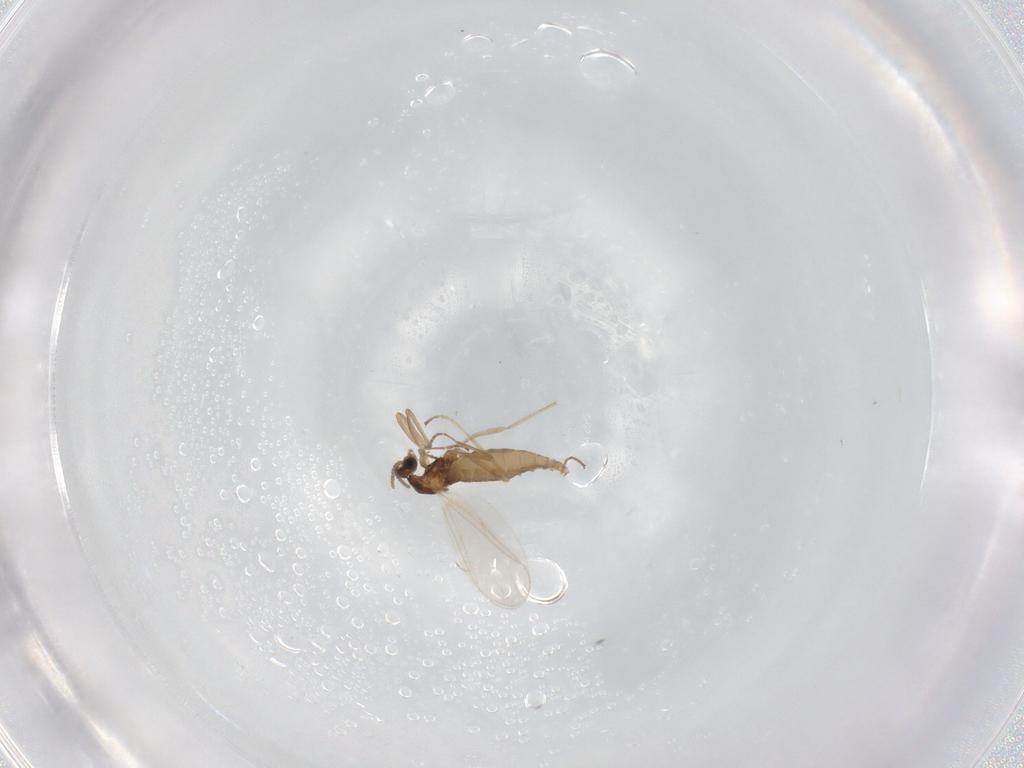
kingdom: Animalia
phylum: Arthropoda
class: Insecta
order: Diptera
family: Cecidomyiidae
